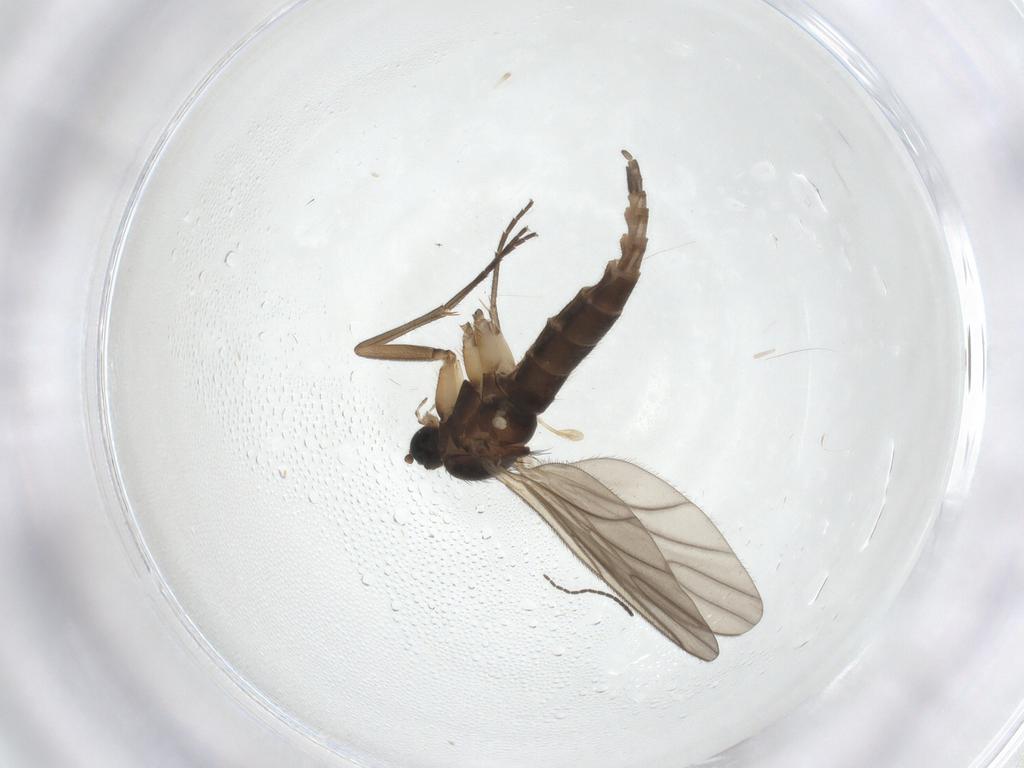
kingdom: Animalia
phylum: Arthropoda
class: Insecta
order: Diptera
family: Sciaridae
